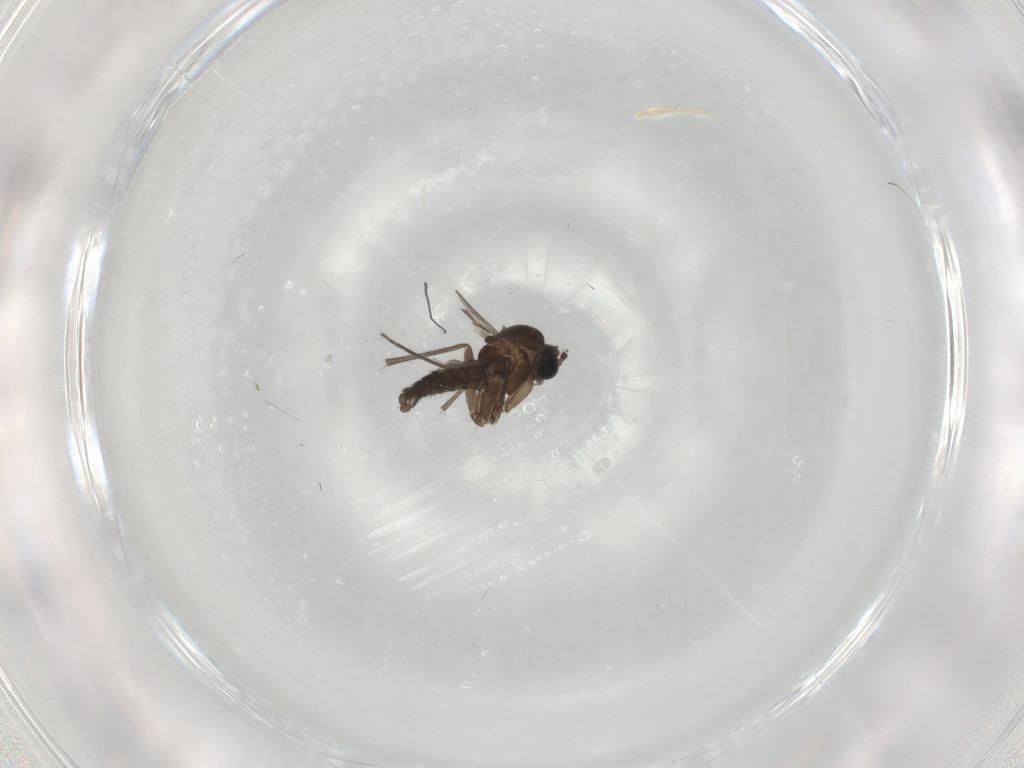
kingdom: Animalia
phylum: Arthropoda
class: Insecta
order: Diptera
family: Sciaridae
